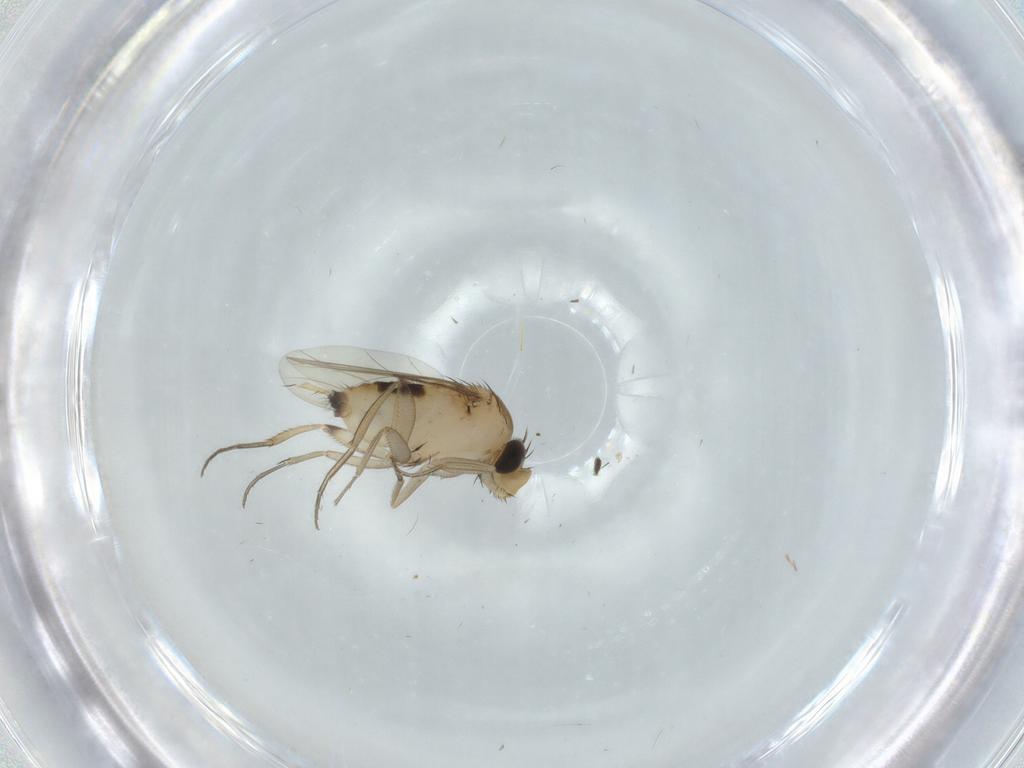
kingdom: Animalia
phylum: Arthropoda
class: Insecta
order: Diptera
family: Phoridae
